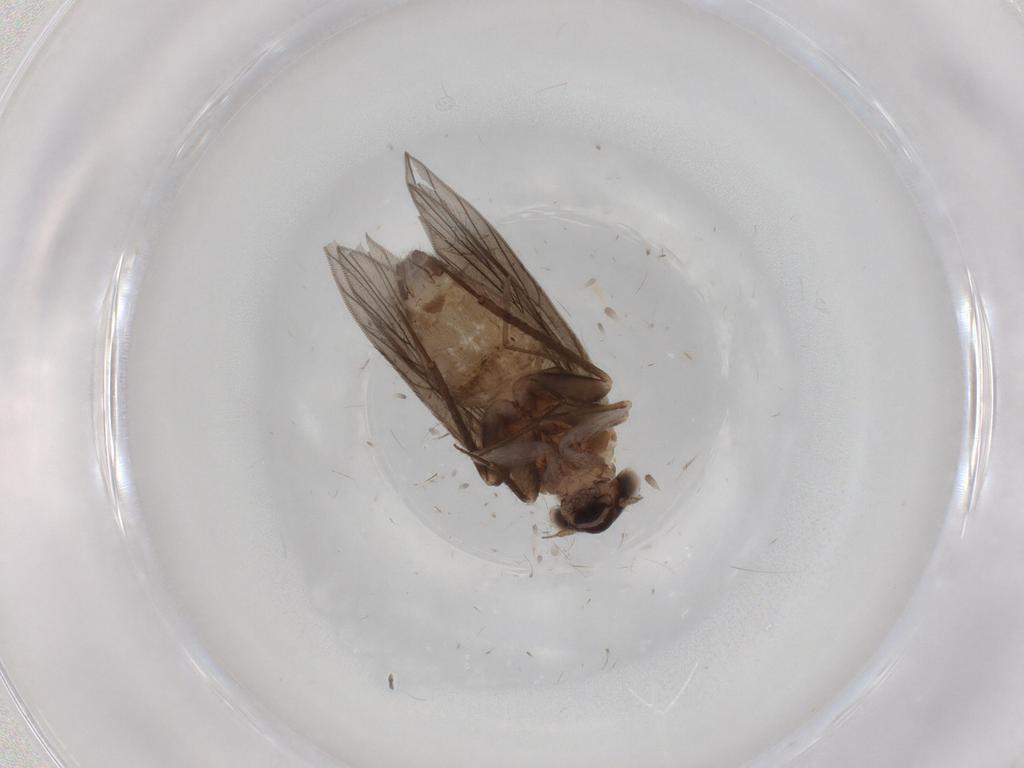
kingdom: Animalia
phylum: Arthropoda
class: Insecta
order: Psocodea
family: Lepidopsocidae
